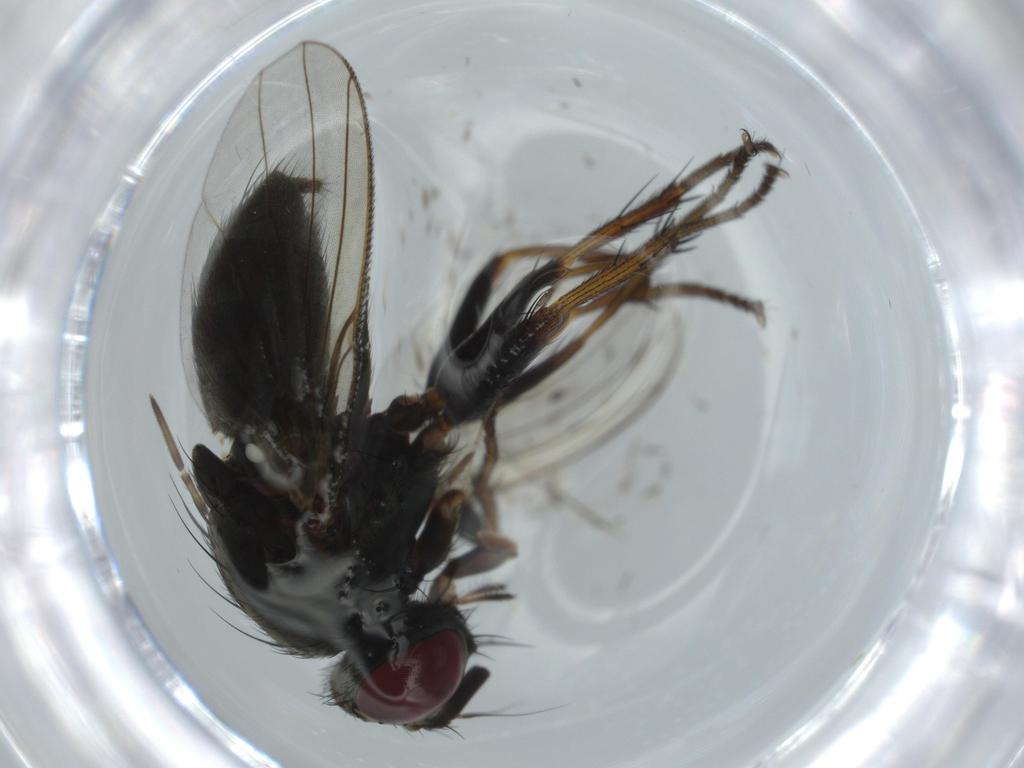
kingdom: Animalia
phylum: Arthropoda
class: Insecta
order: Diptera
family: Muscidae
